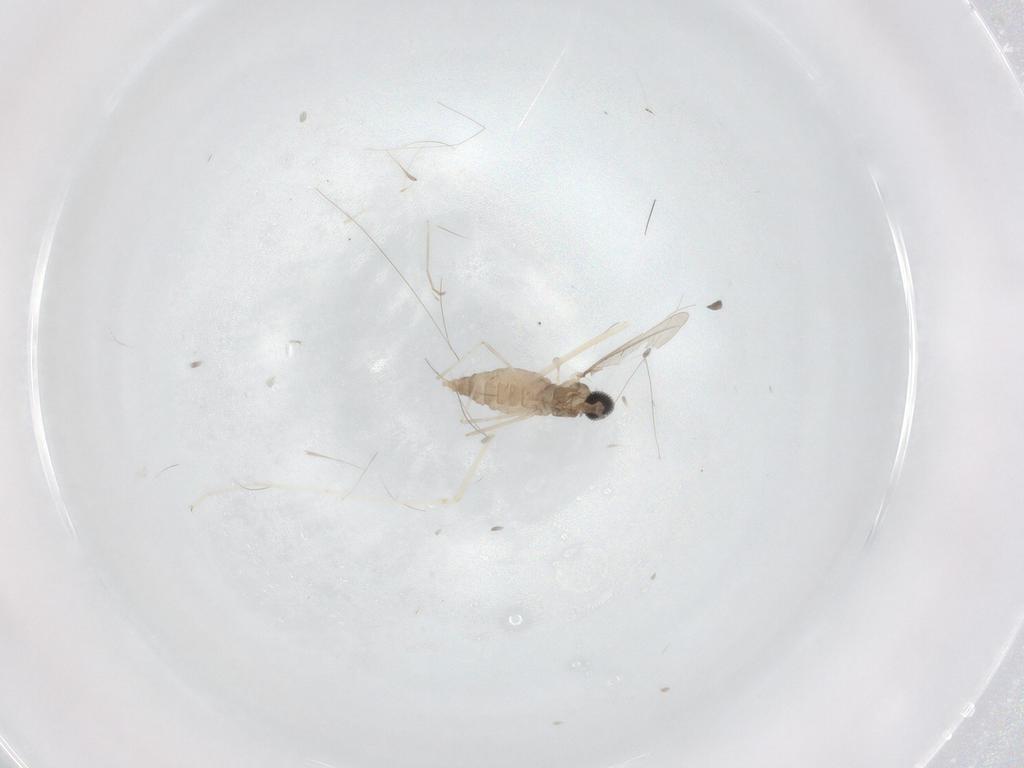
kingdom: Animalia
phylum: Arthropoda
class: Insecta
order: Diptera
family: Cecidomyiidae
